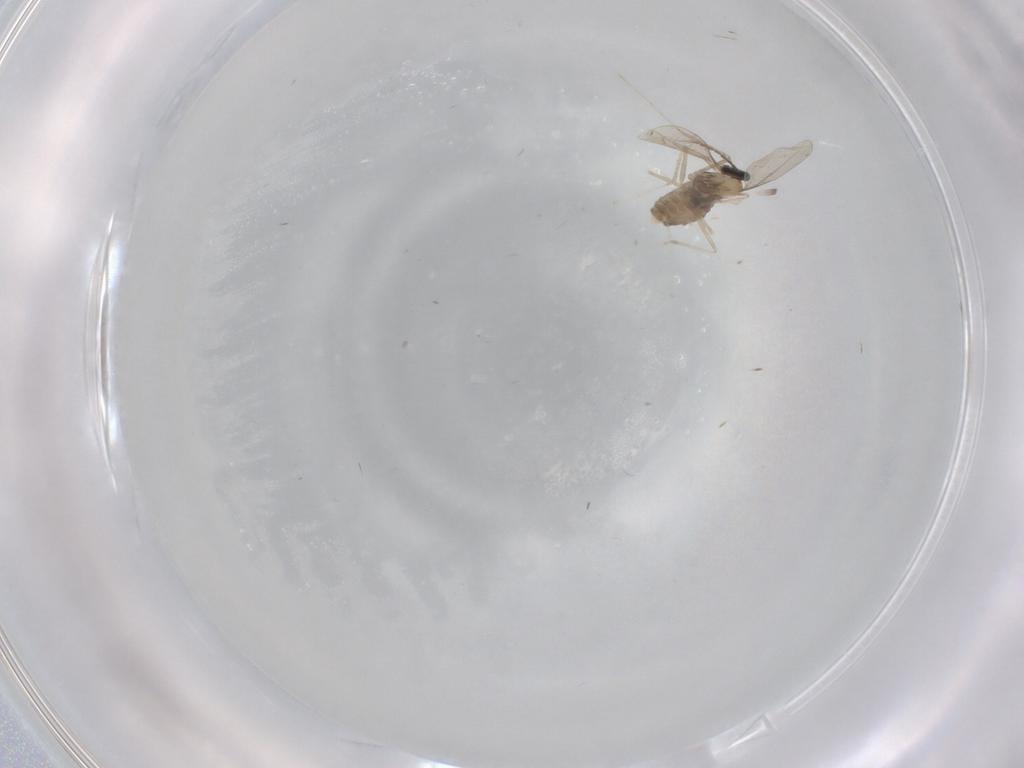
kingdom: Animalia
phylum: Arthropoda
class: Insecta
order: Diptera
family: Cecidomyiidae
